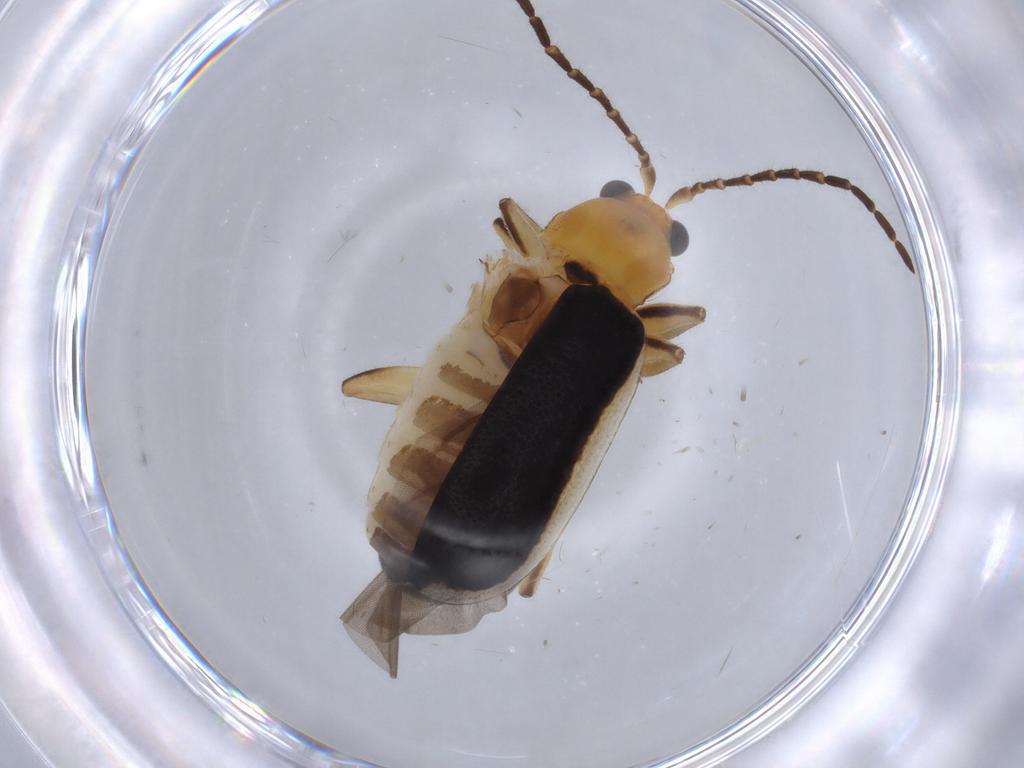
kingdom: Animalia
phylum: Arthropoda
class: Insecta
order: Coleoptera
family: Chrysomelidae
